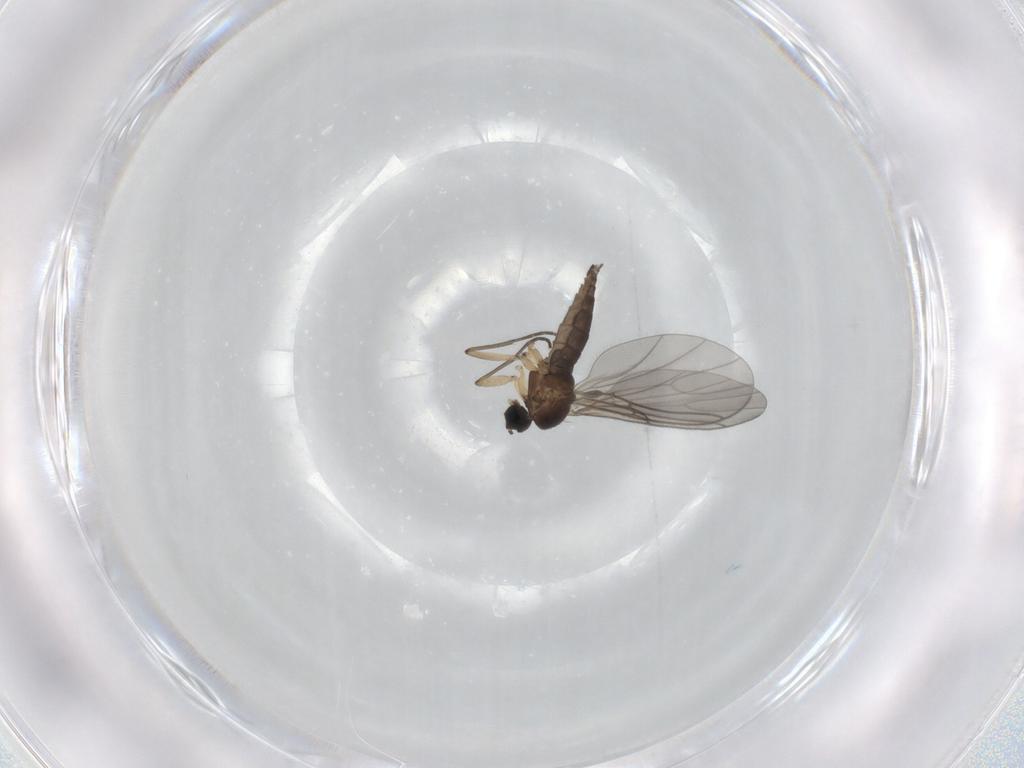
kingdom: Animalia
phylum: Arthropoda
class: Insecta
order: Diptera
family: Sciaridae
